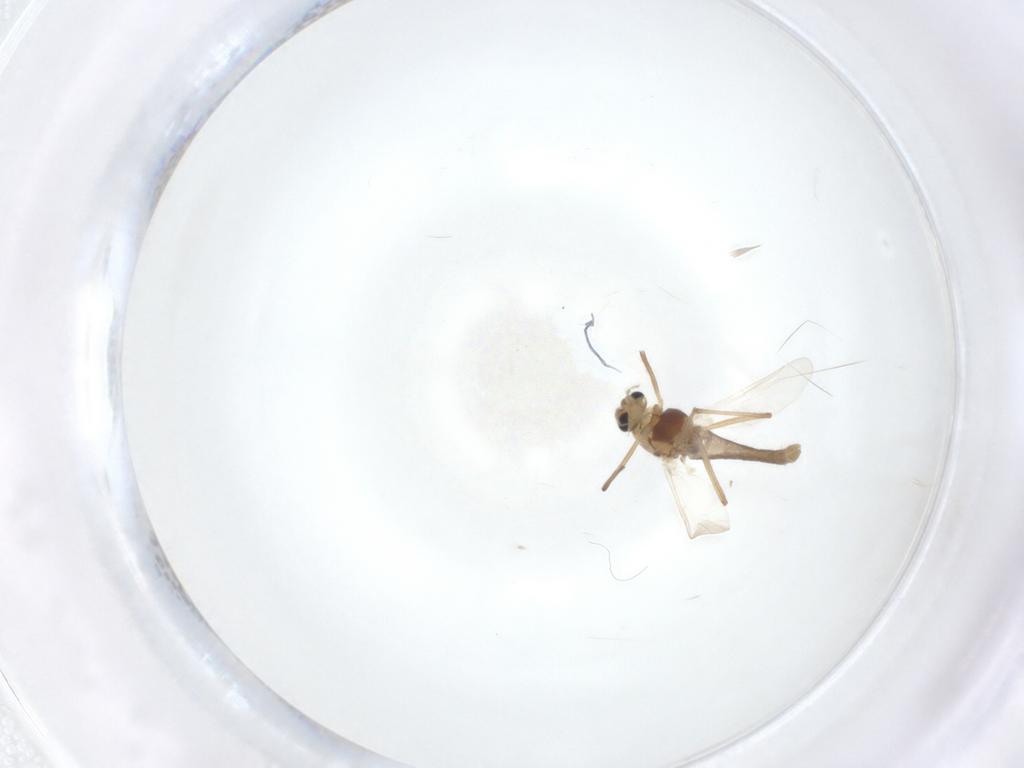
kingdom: Animalia
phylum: Arthropoda
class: Insecta
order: Diptera
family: Chironomidae
